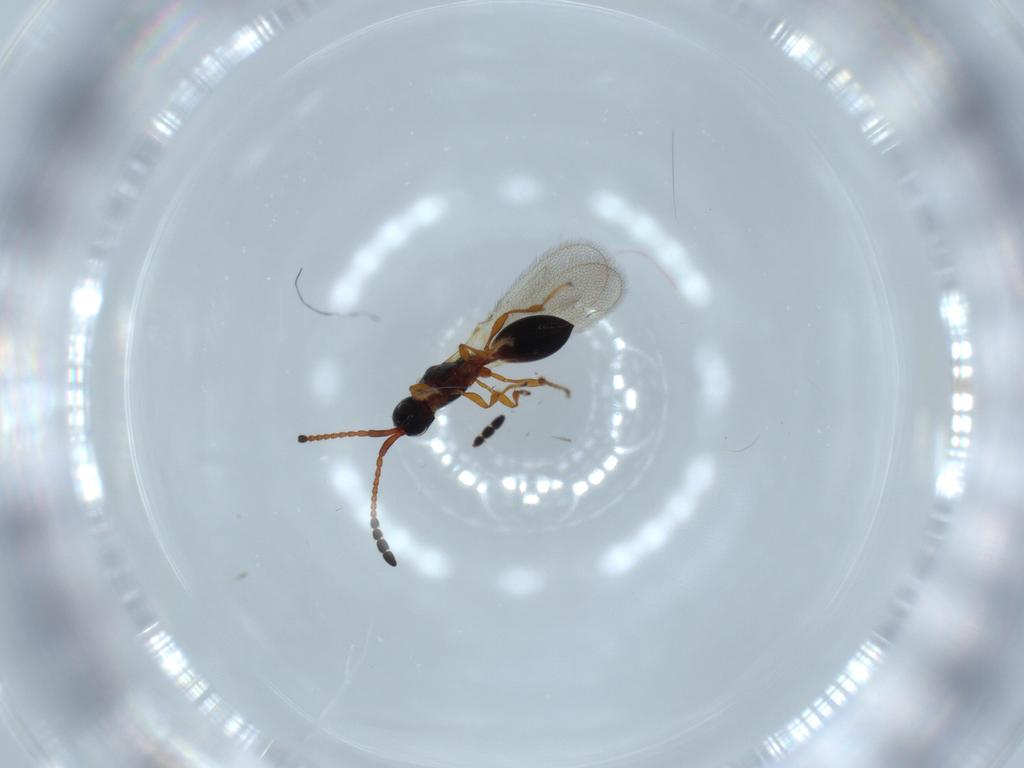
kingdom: Animalia
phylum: Arthropoda
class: Insecta
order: Hymenoptera
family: Diapriidae
